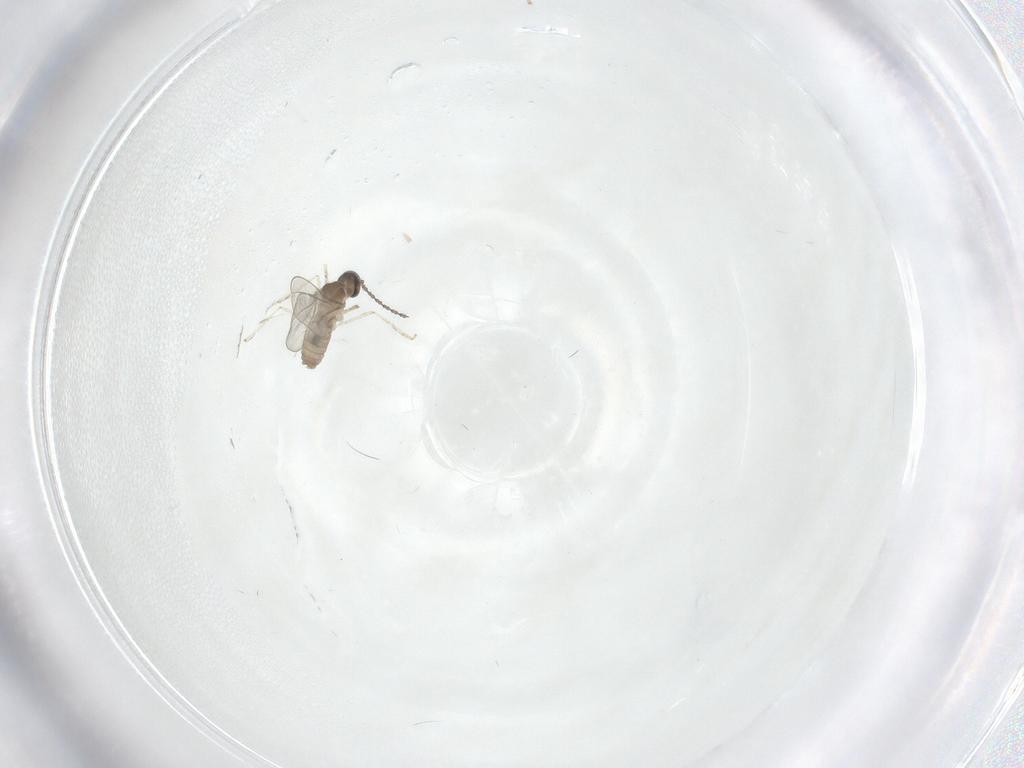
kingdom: Animalia
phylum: Arthropoda
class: Insecta
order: Diptera
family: Cecidomyiidae
